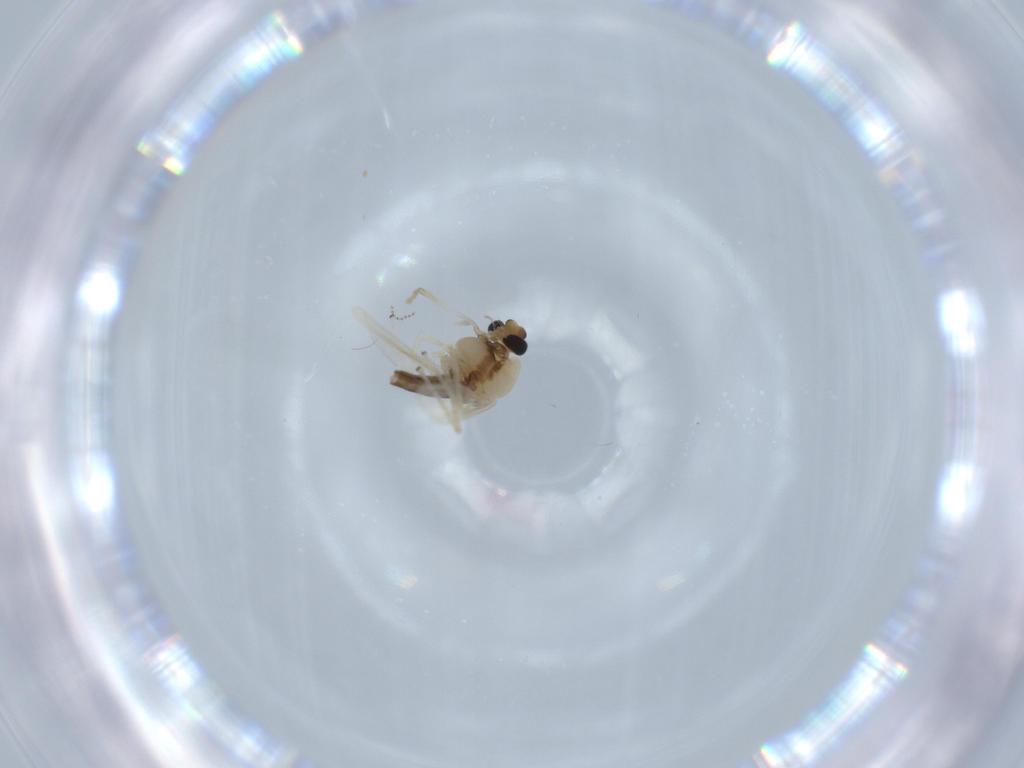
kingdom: Animalia
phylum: Arthropoda
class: Insecta
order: Diptera
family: Chironomidae
